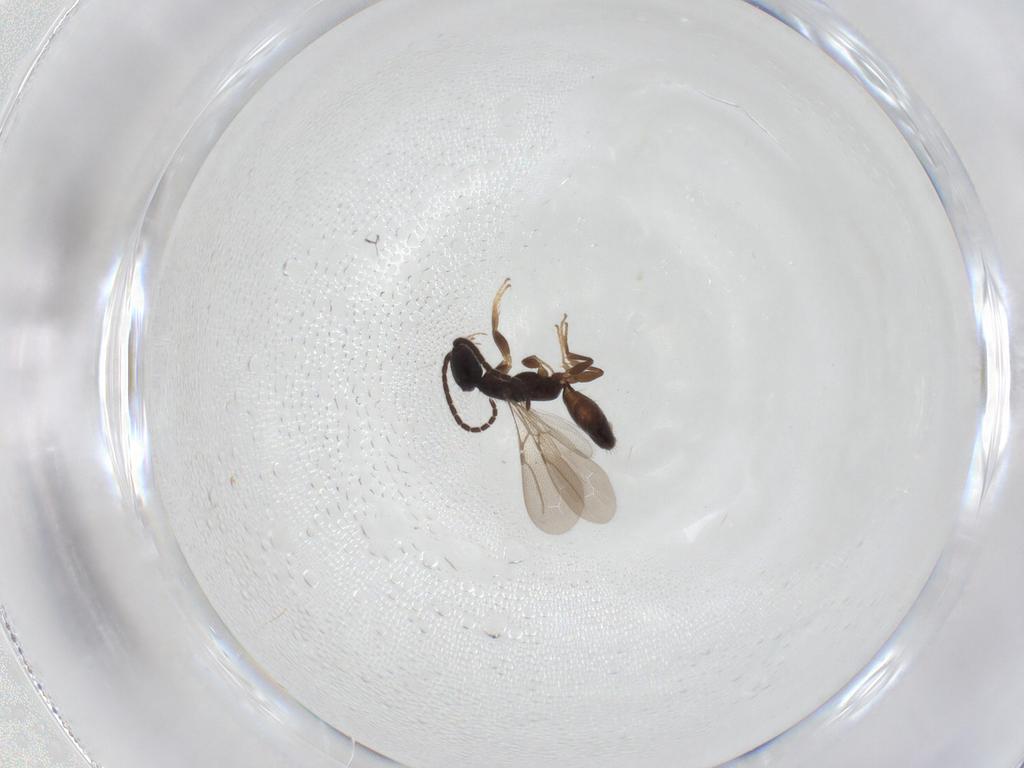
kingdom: Animalia
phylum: Arthropoda
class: Insecta
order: Hymenoptera
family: Bethylidae
